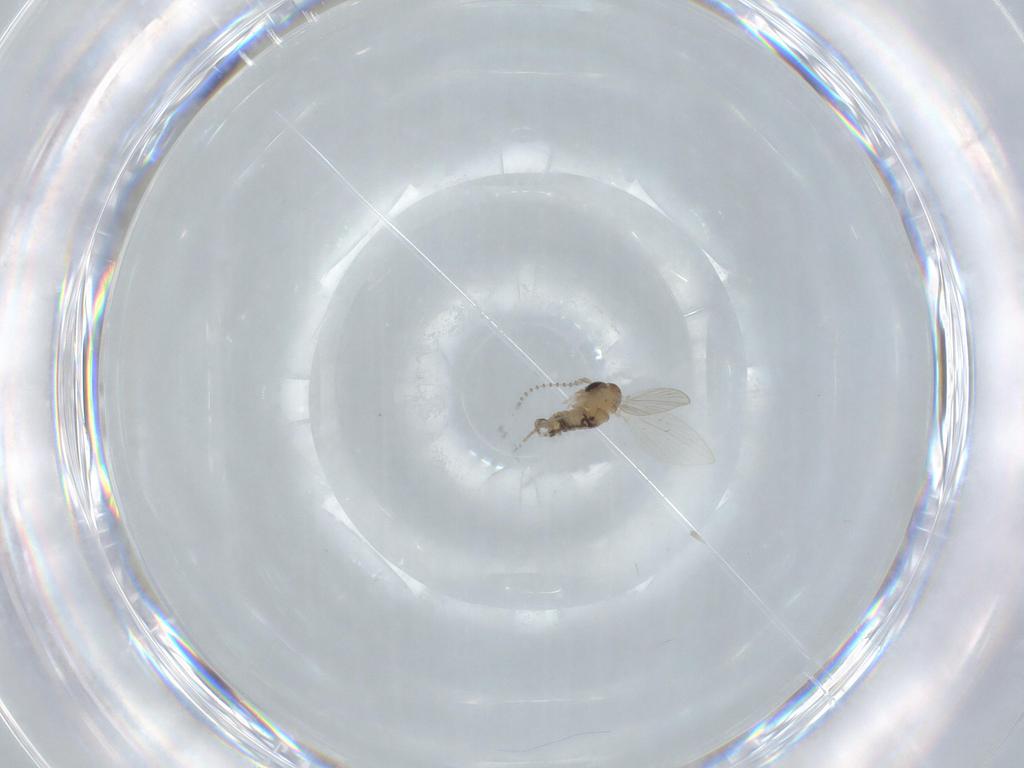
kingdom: Animalia
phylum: Arthropoda
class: Insecta
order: Diptera
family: Psychodidae
